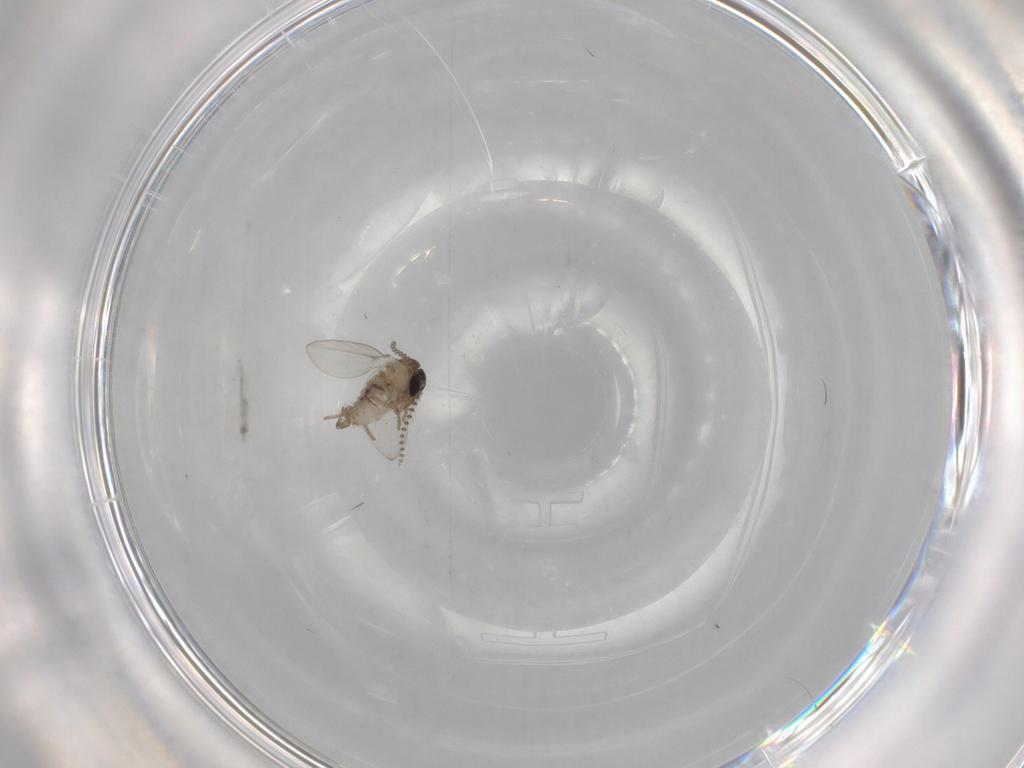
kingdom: Animalia
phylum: Arthropoda
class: Insecta
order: Diptera
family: Psychodidae
